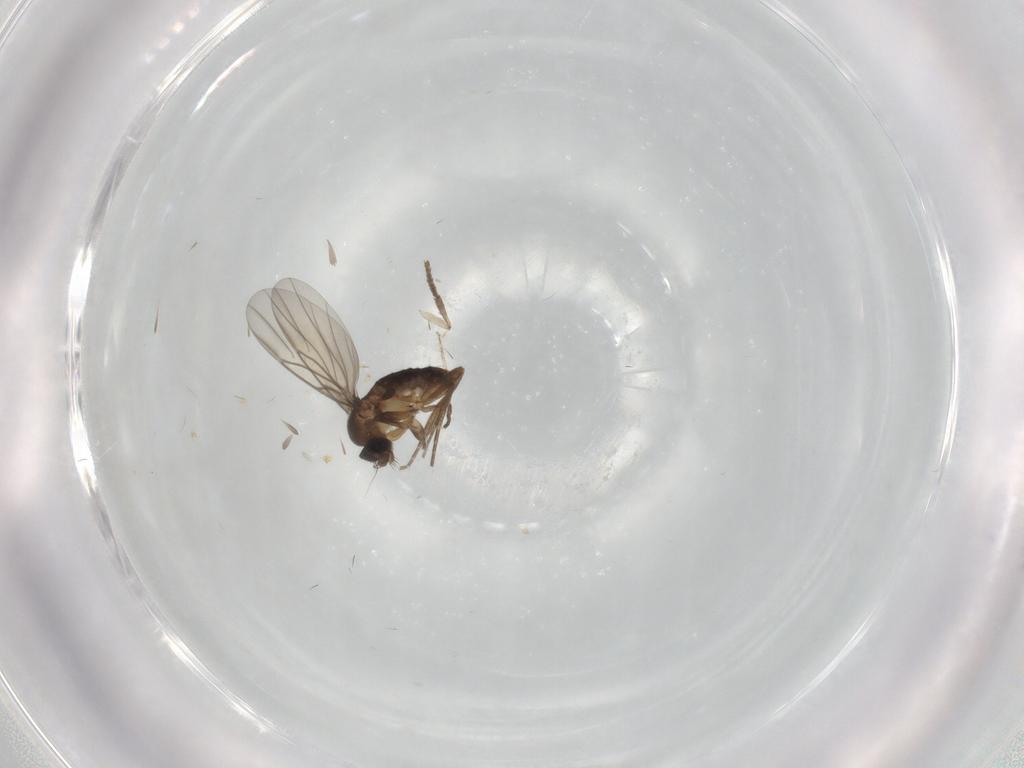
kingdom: Animalia
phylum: Arthropoda
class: Insecta
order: Diptera
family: Psychodidae
